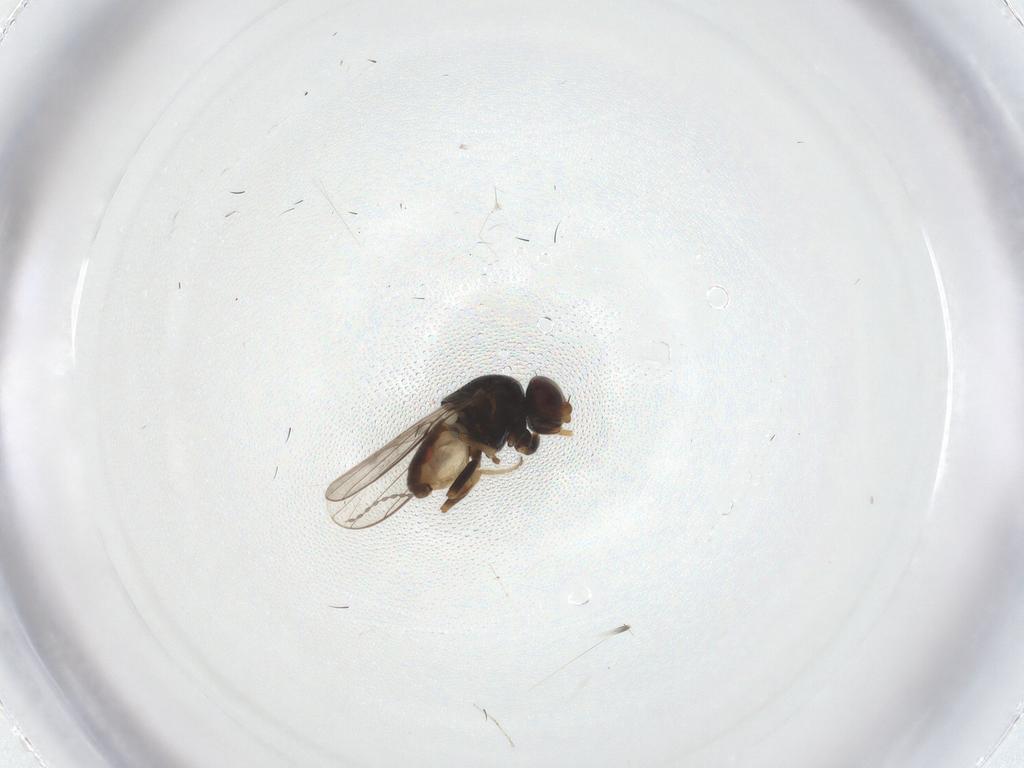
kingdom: Animalia
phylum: Arthropoda
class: Insecta
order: Diptera
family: Chloropidae
